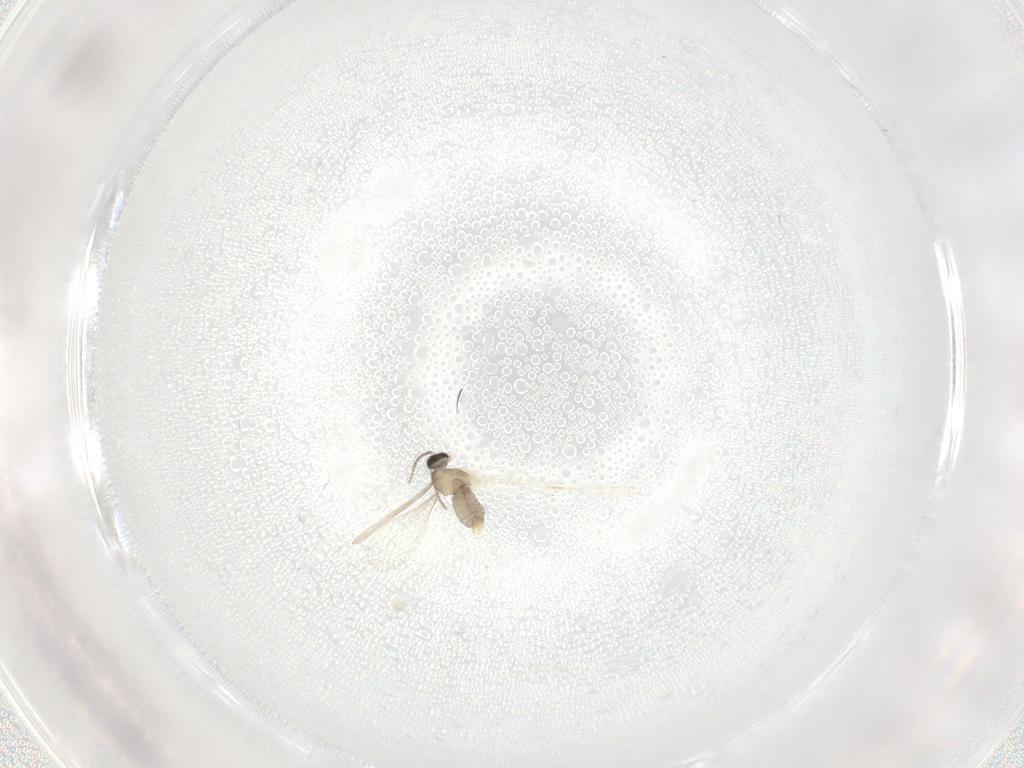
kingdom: Animalia
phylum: Arthropoda
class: Insecta
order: Diptera
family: Cecidomyiidae
